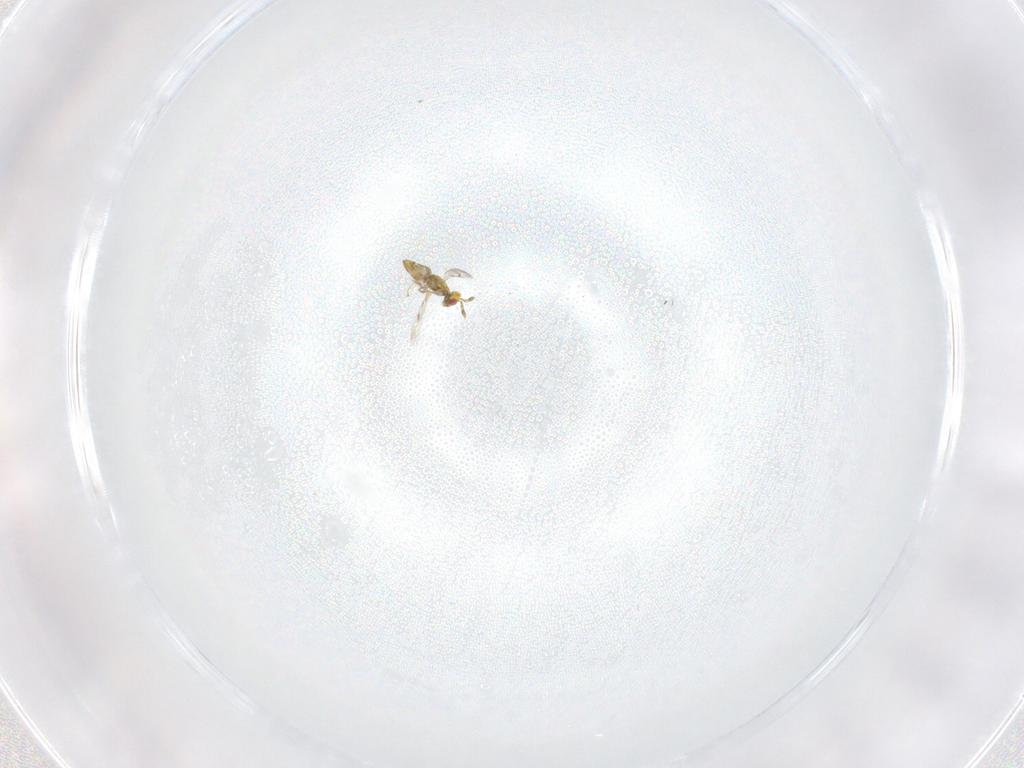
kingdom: Animalia
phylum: Arthropoda
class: Insecta
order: Hymenoptera
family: Eulophidae
